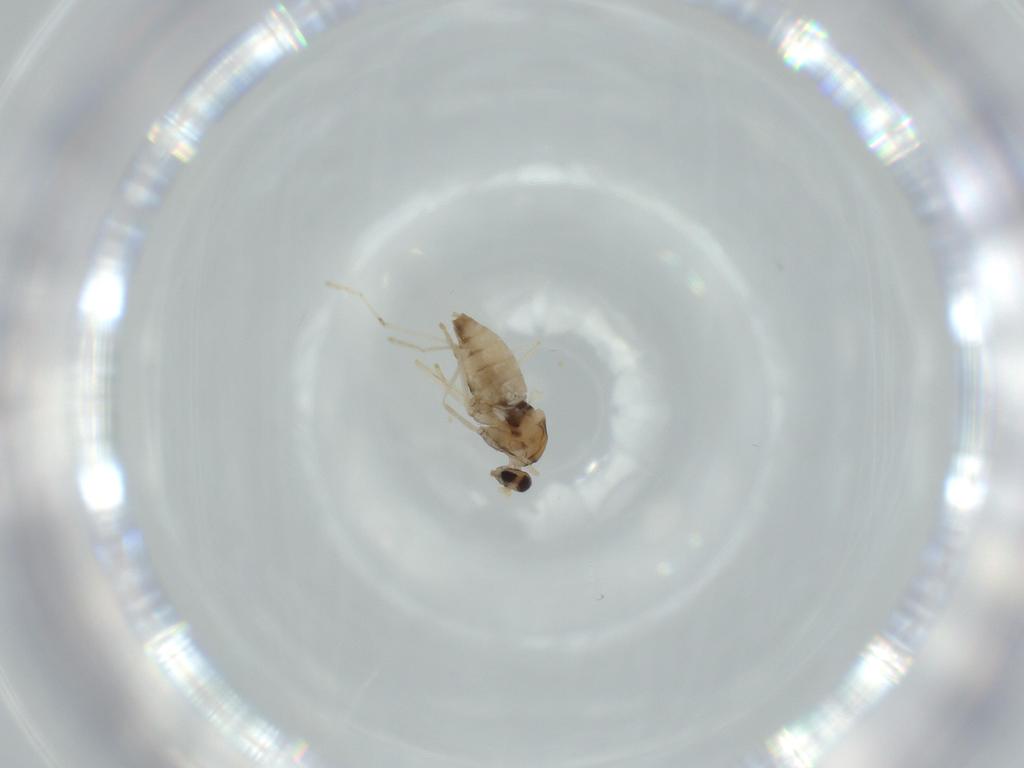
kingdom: Animalia
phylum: Arthropoda
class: Insecta
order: Diptera
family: Cecidomyiidae
